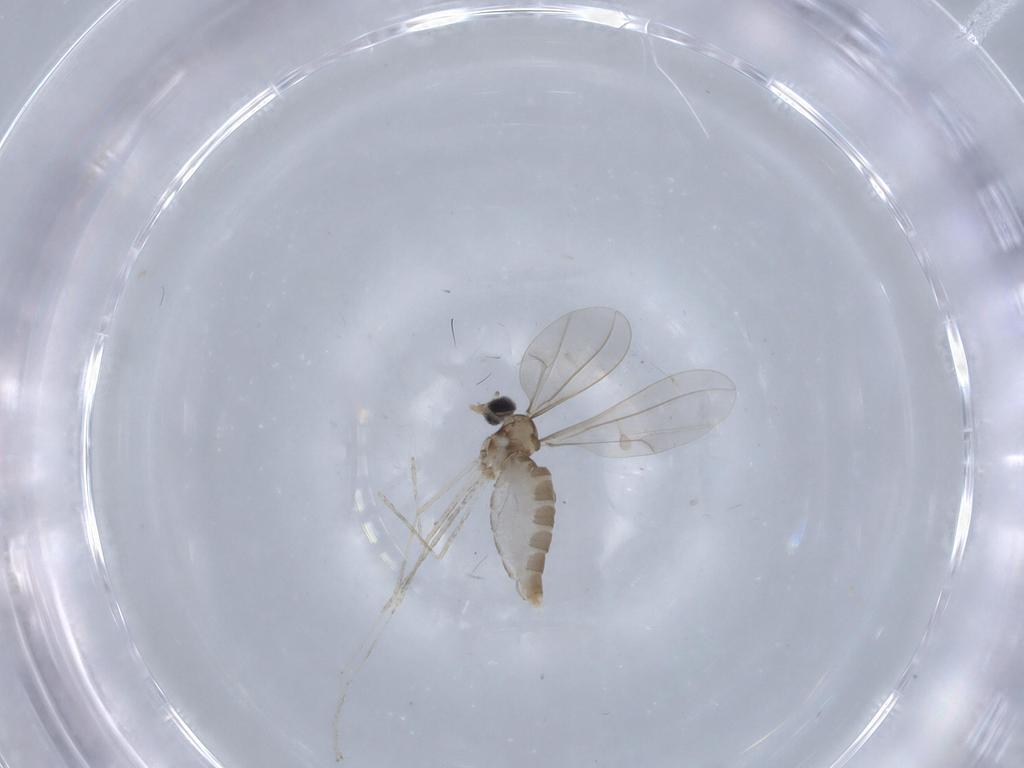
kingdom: Animalia
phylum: Arthropoda
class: Insecta
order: Diptera
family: Cecidomyiidae
